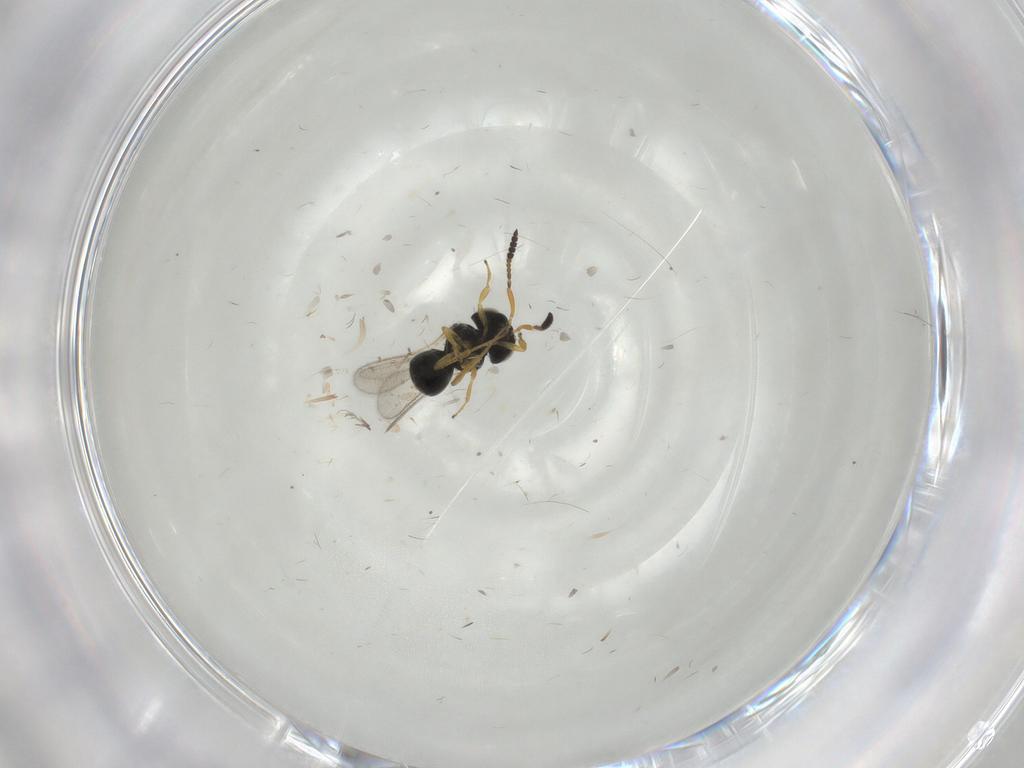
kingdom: Animalia
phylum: Arthropoda
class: Insecta
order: Hymenoptera
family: Scelionidae
